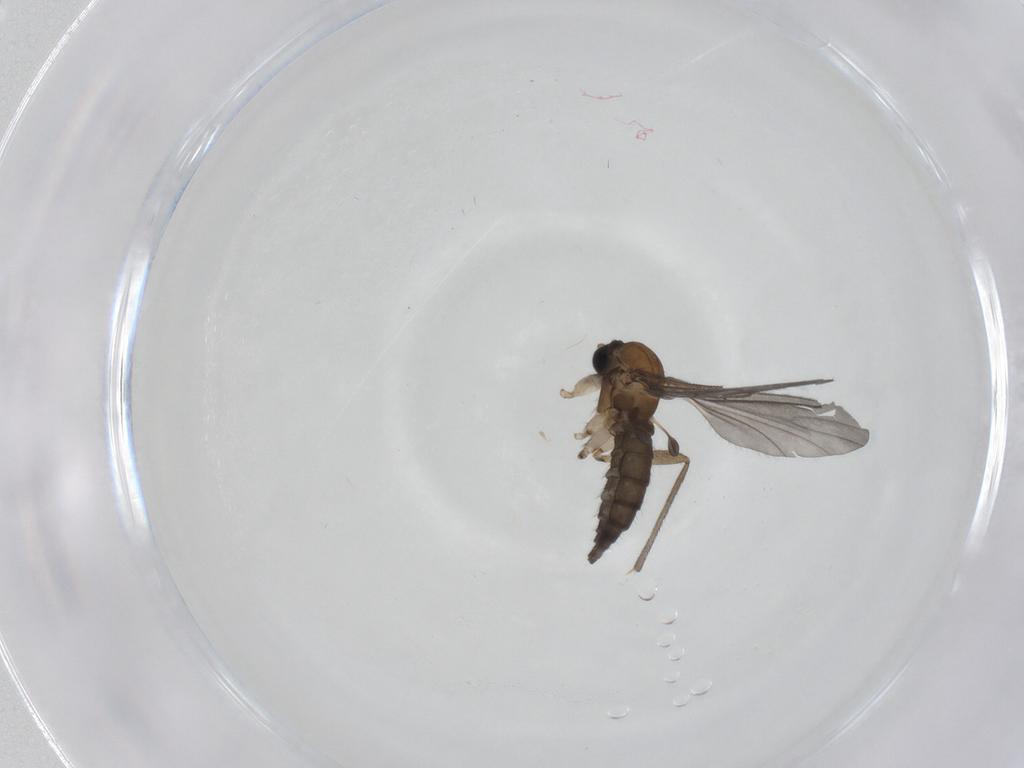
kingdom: Animalia
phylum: Arthropoda
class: Insecta
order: Diptera
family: Sciaridae
